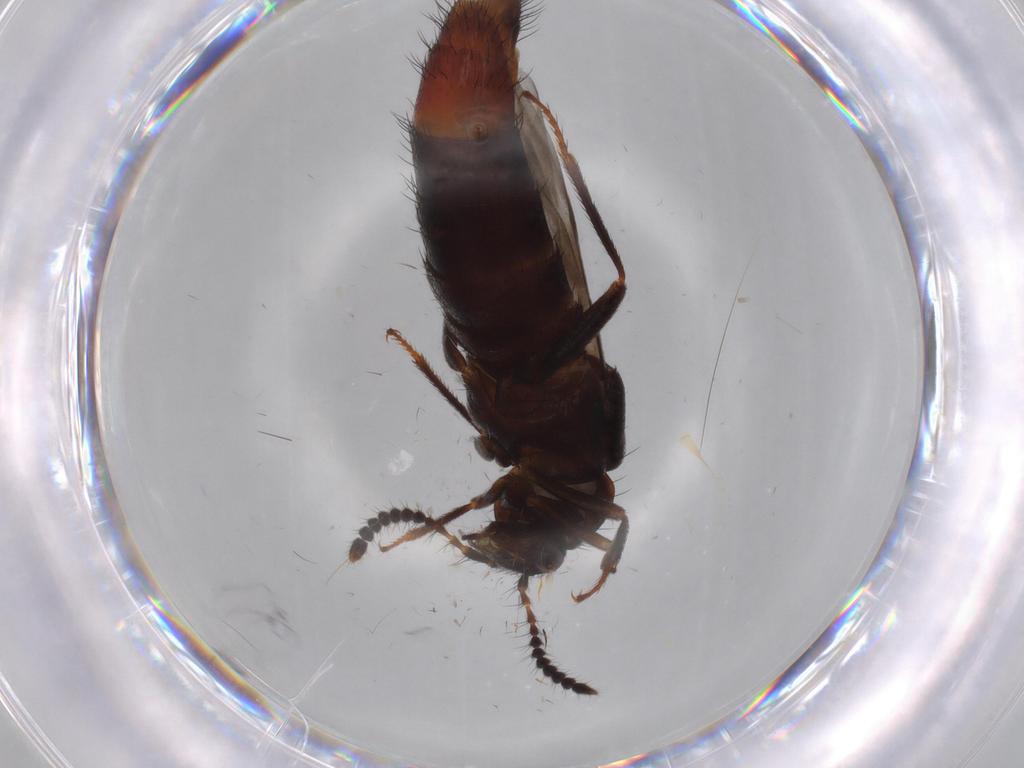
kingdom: Animalia
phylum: Arthropoda
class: Insecta
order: Coleoptera
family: Staphylinidae
